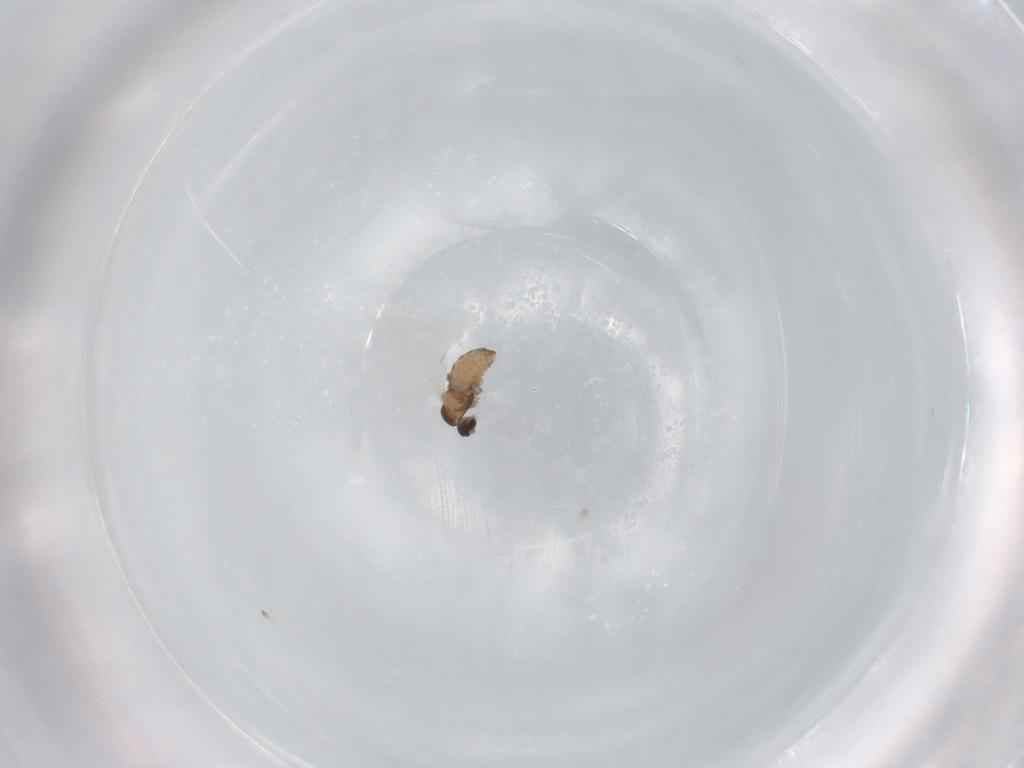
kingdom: Animalia
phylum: Arthropoda
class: Insecta
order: Diptera
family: Cecidomyiidae
